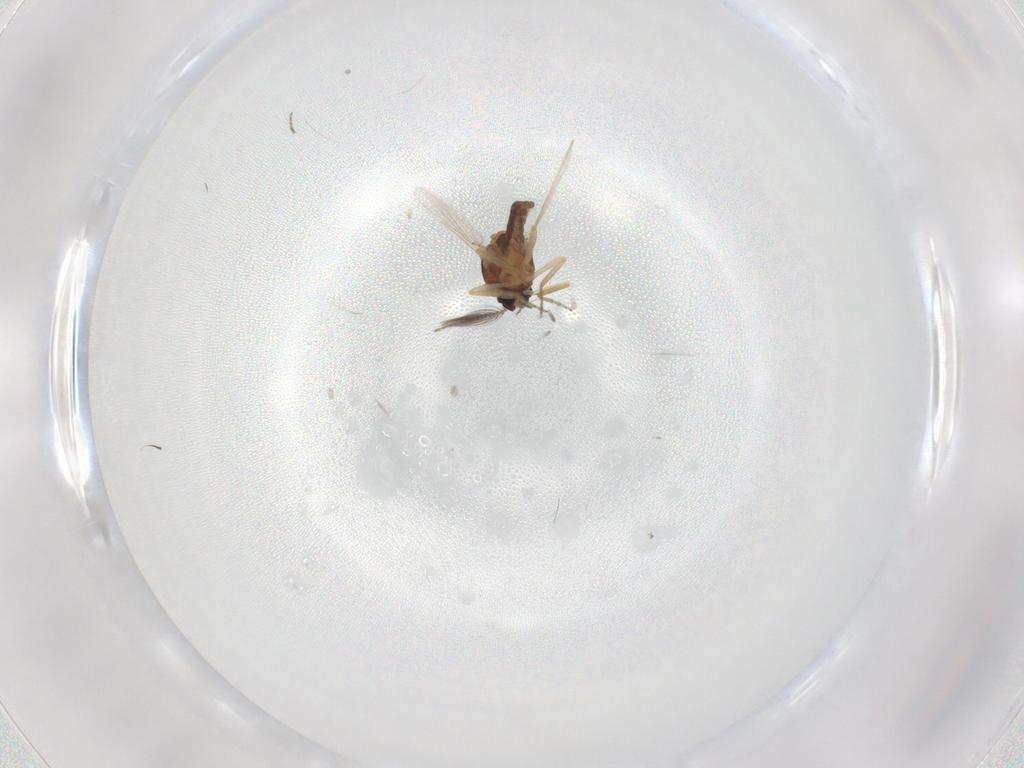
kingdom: Animalia
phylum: Arthropoda
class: Insecta
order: Diptera
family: Ceratopogonidae
